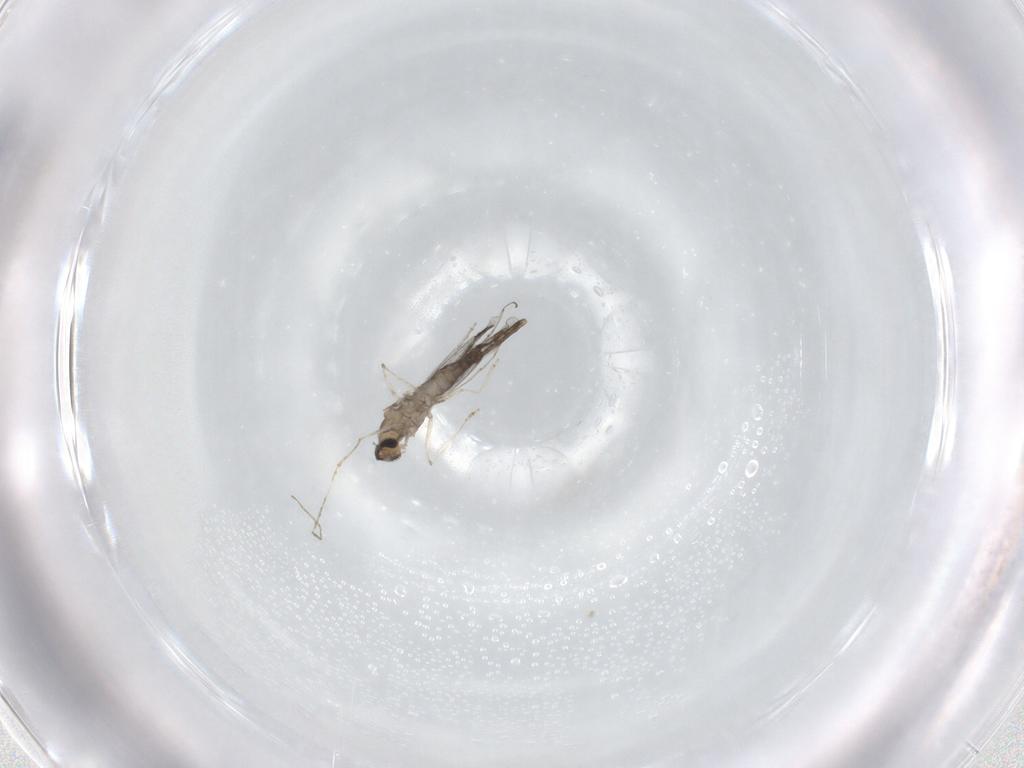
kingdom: Animalia
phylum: Arthropoda
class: Insecta
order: Diptera
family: Cecidomyiidae
